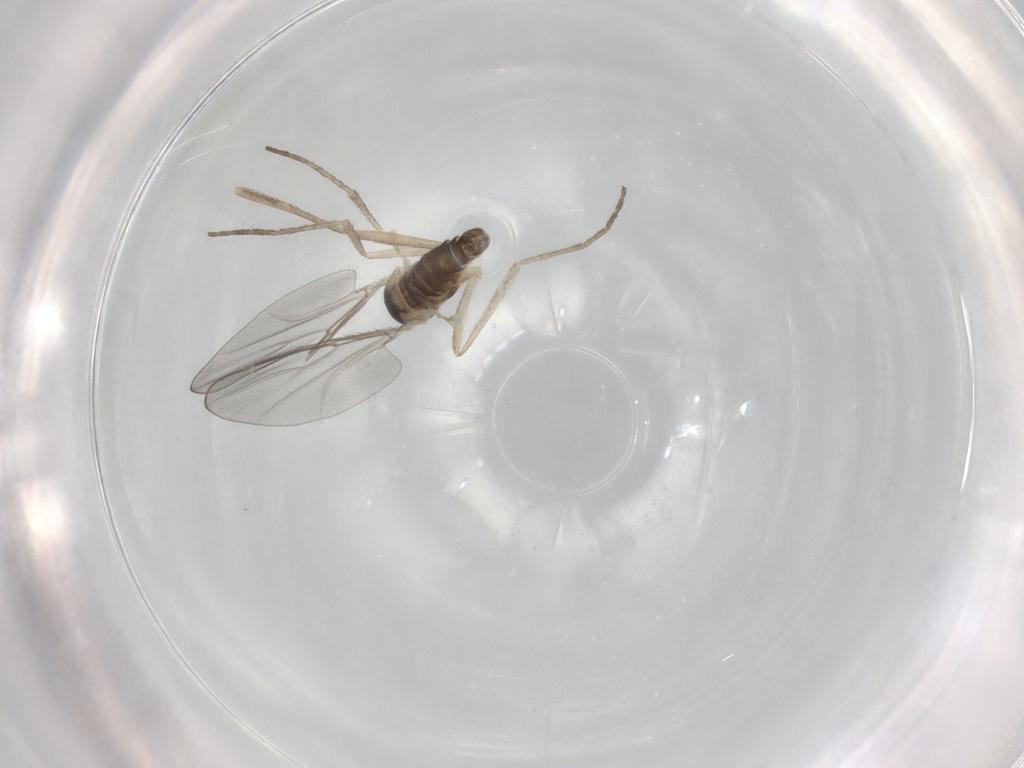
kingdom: Animalia
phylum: Arthropoda
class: Insecta
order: Diptera
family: Cecidomyiidae
